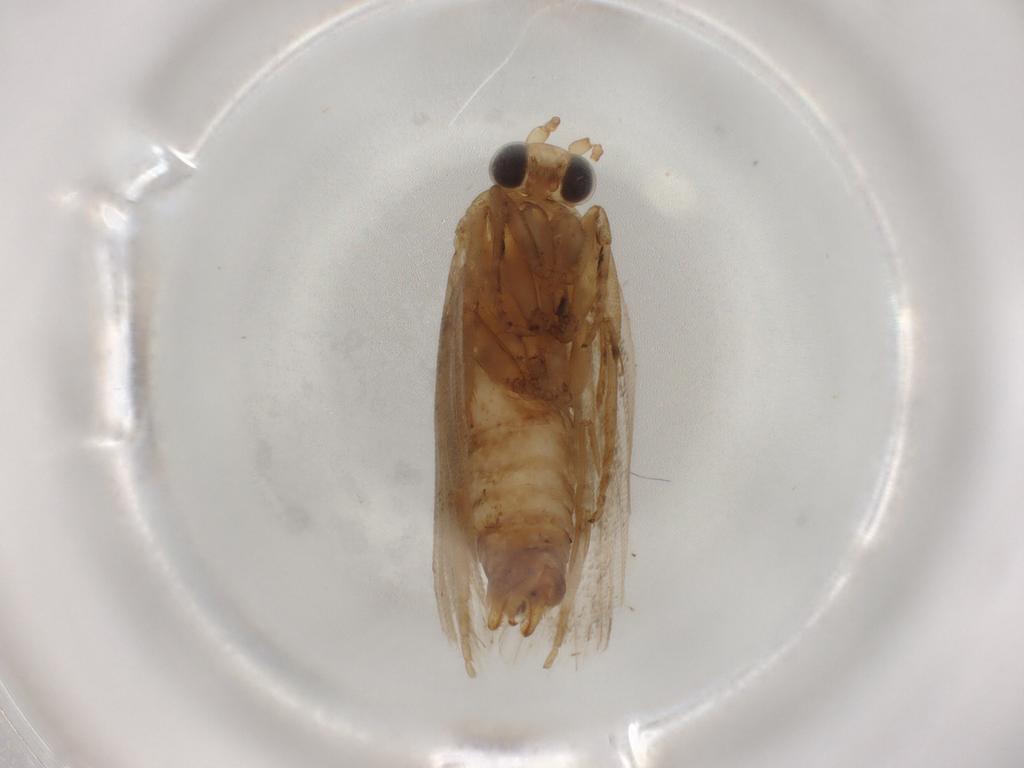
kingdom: Animalia
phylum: Arthropoda
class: Insecta
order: Lepidoptera
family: Tortricidae
